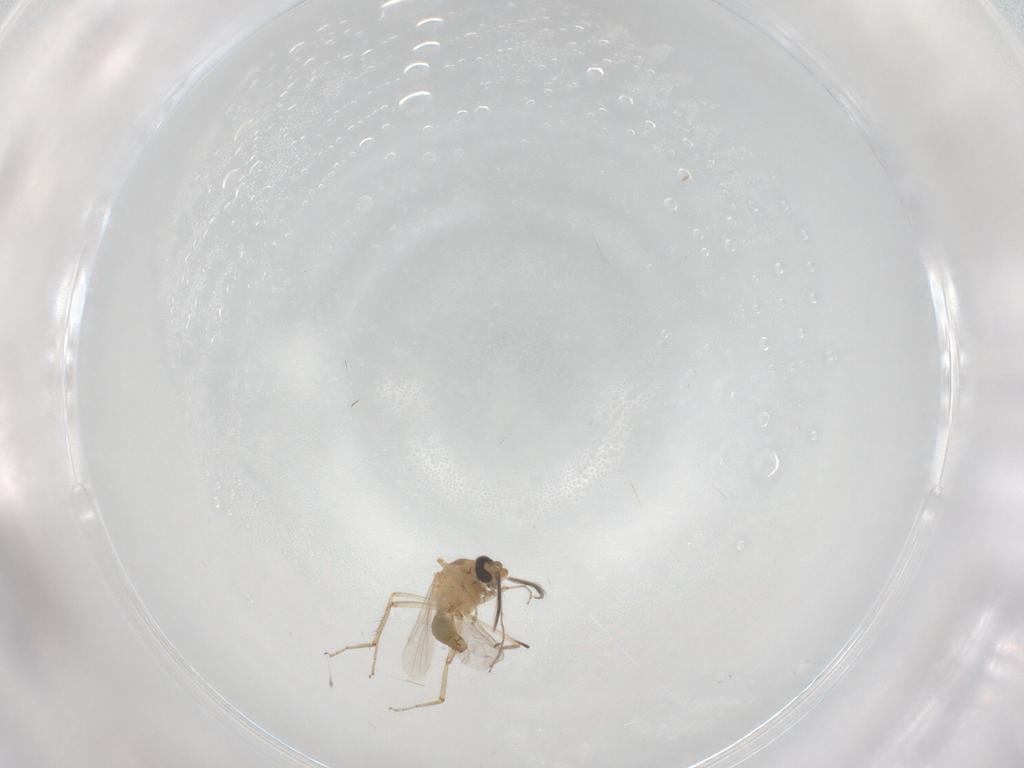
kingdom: Animalia
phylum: Arthropoda
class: Insecta
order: Diptera
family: Ceratopogonidae
